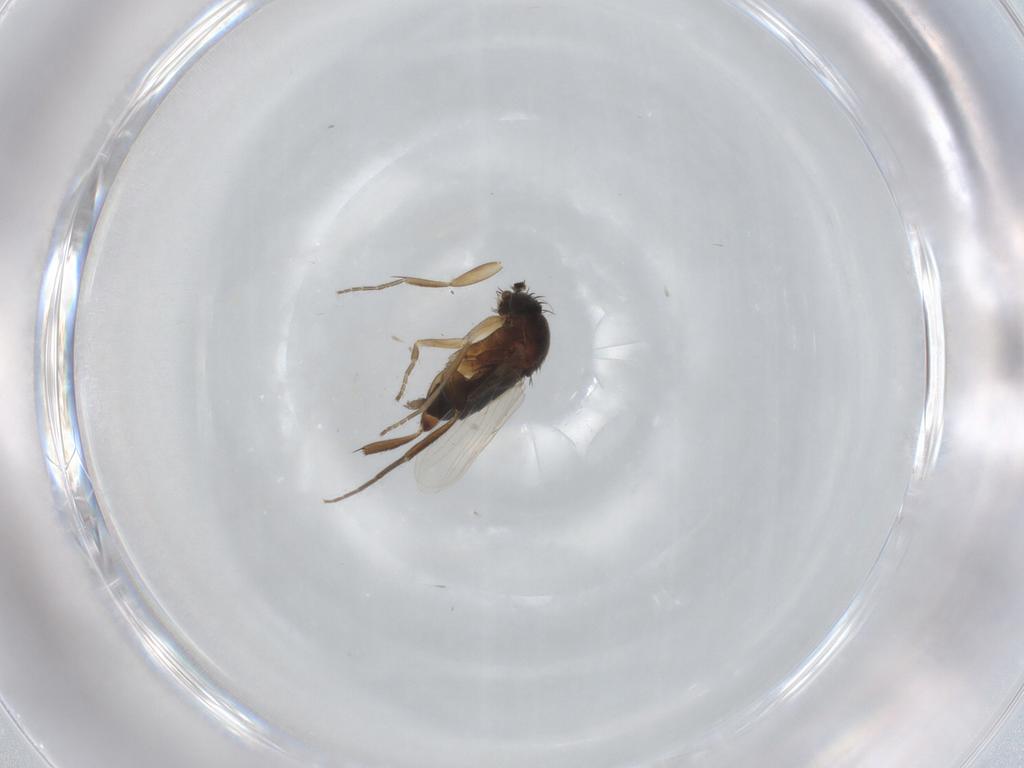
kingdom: Animalia
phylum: Arthropoda
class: Insecta
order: Diptera
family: Phoridae
